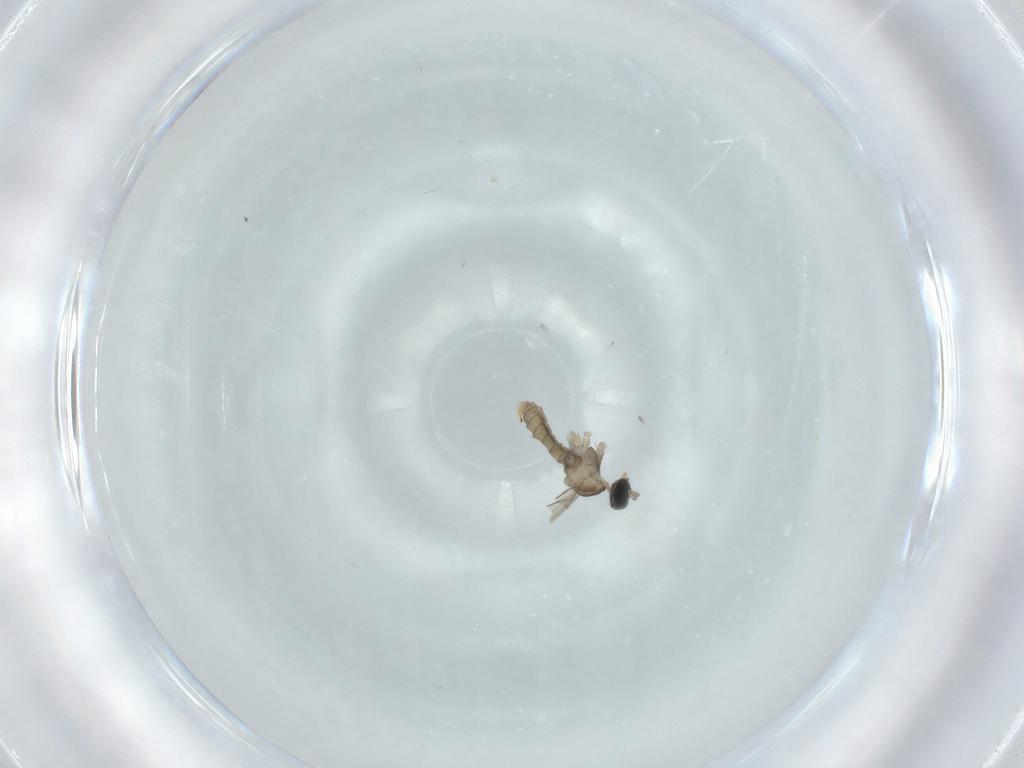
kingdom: Animalia
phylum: Arthropoda
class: Insecta
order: Diptera
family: Cecidomyiidae
